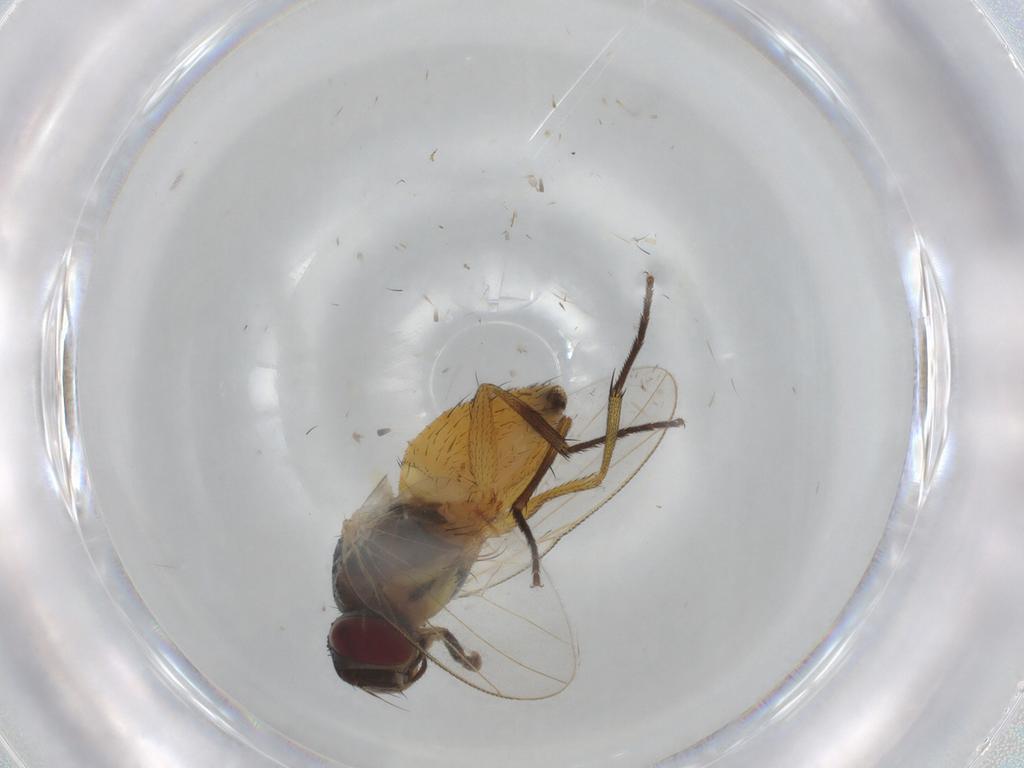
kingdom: Animalia
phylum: Arthropoda
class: Insecta
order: Diptera
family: Muscidae
